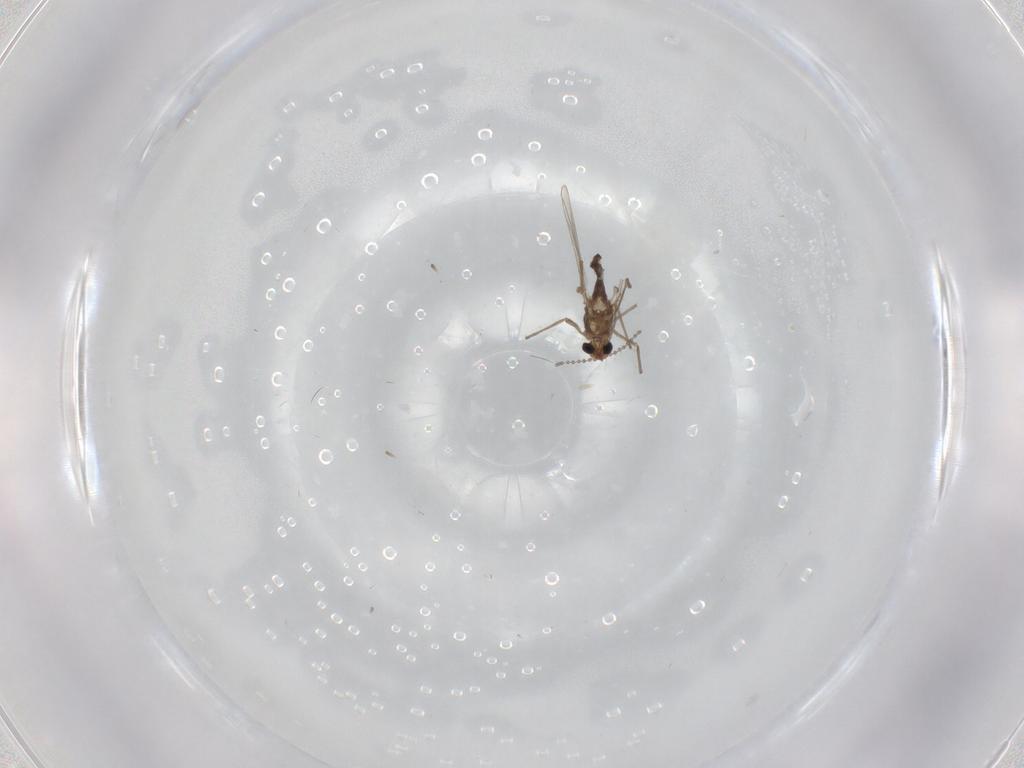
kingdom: Animalia
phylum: Arthropoda
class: Insecta
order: Diptera
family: Chironomidae
